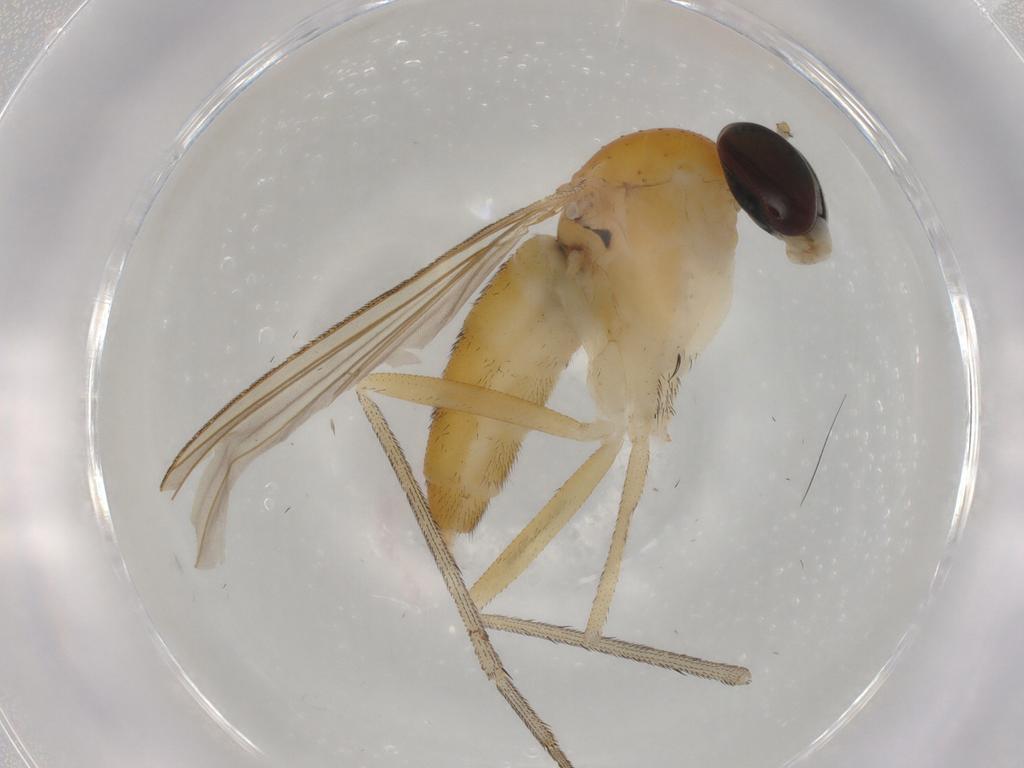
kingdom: Animalia
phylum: Arthropoda
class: Insecta
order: Diptera
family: Dolichopodidae
